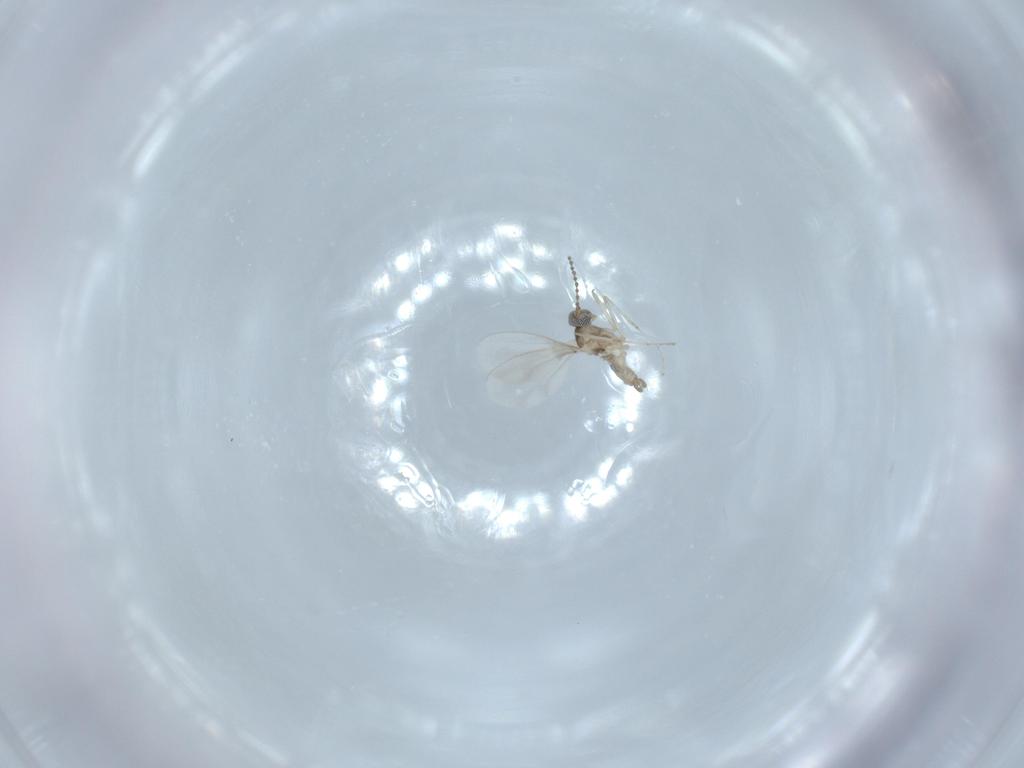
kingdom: Animalia
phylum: Arthropoda
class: Insecta
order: Diptera
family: Cecidomyiidae
